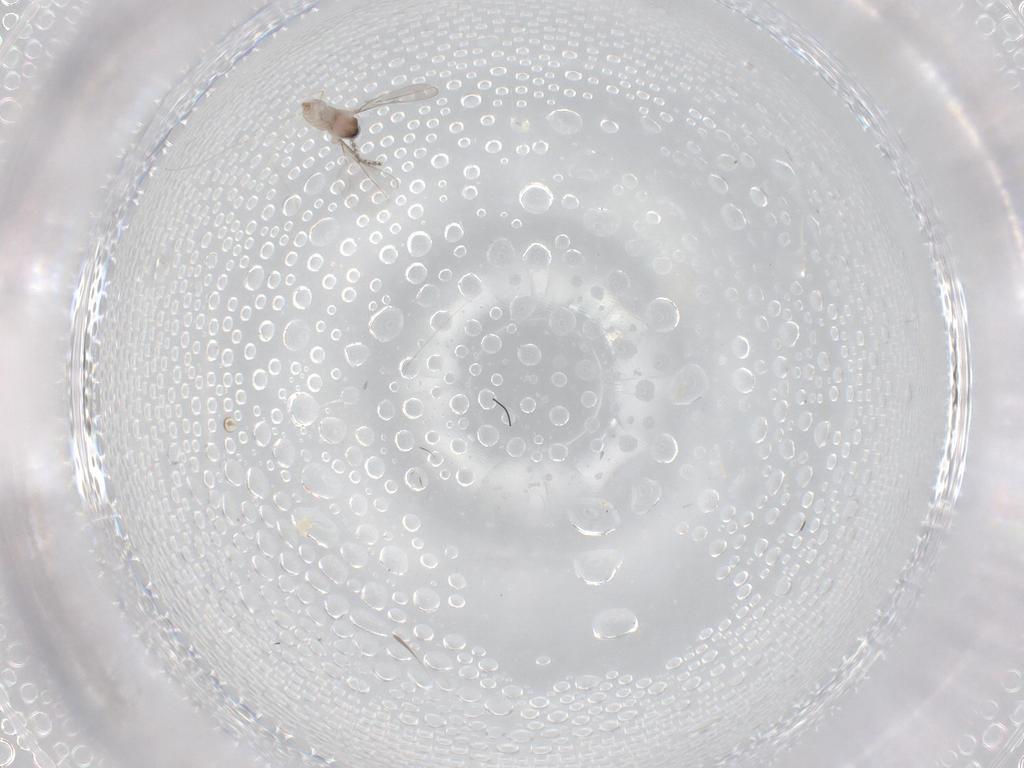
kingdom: Animalia
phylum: Arthropoda
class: Insecta
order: Diptera
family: Cecidomyiidae
